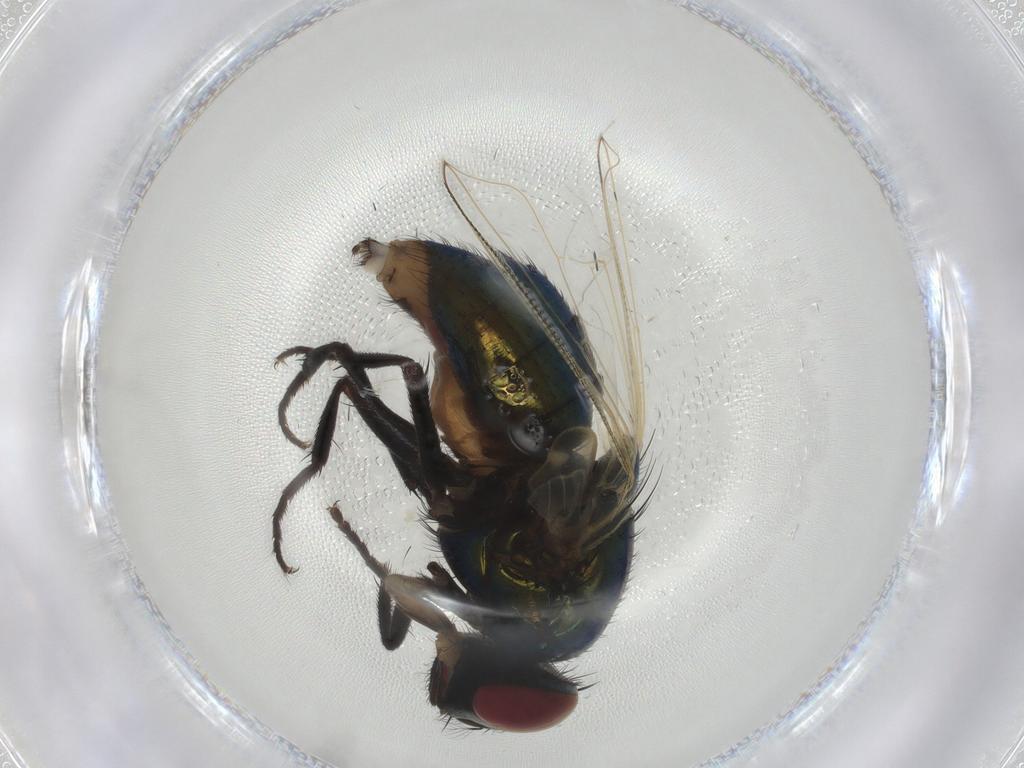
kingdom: Animalia
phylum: Arthropoda
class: Insecta
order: Diptera
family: Muscidae
